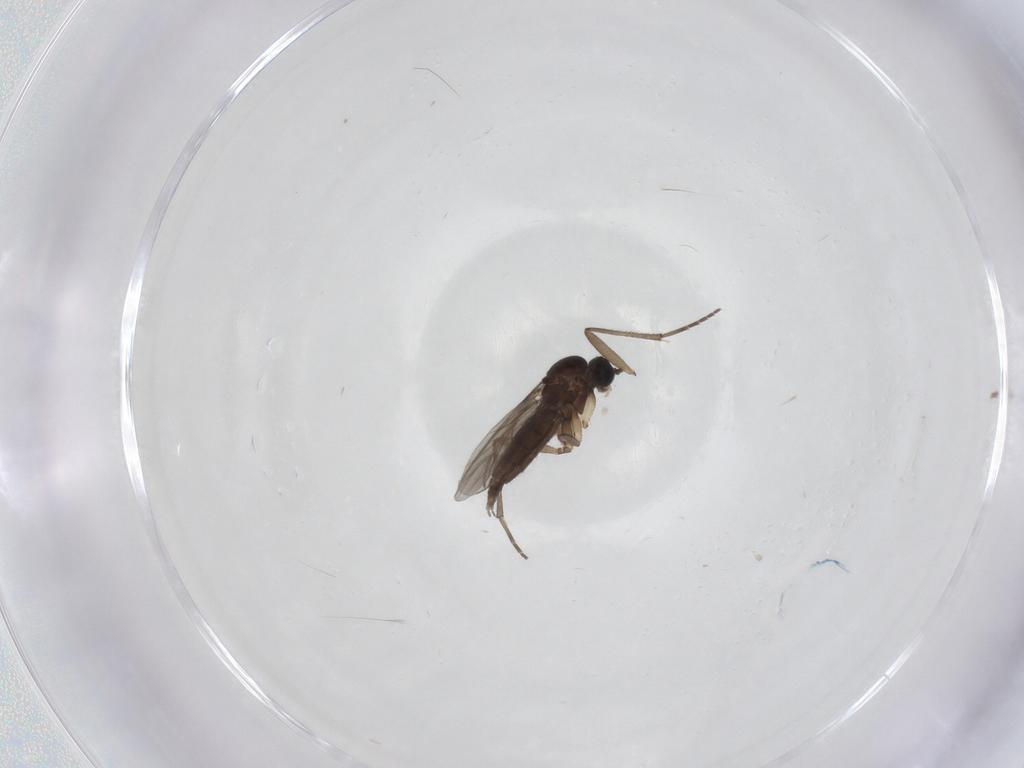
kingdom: Animalia
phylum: Arthropoda
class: Insecta
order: Diptera
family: Sciaridae
